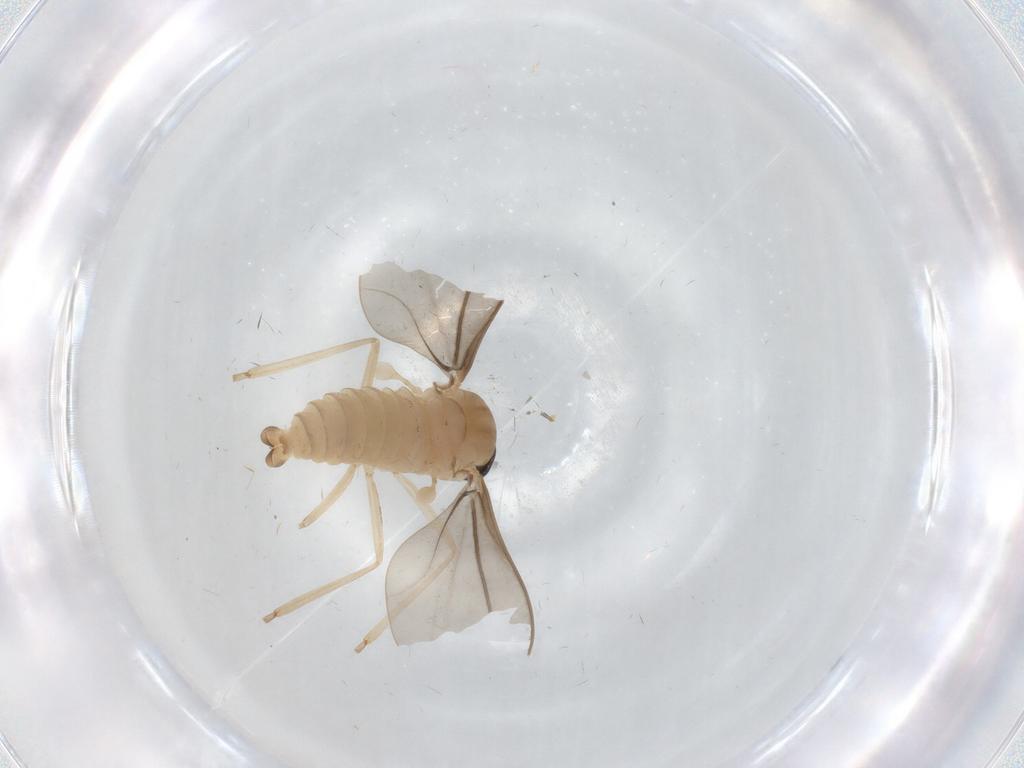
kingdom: Animalia
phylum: Arthropoda
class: Insecta
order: Diptera
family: Cecidomyiidae
